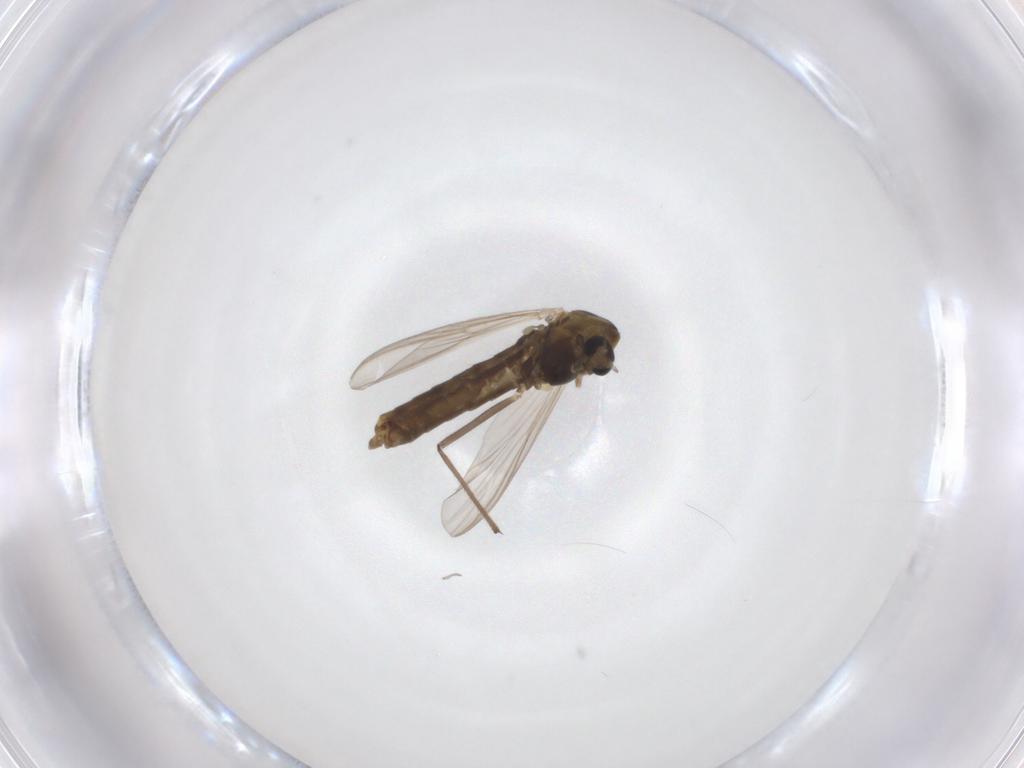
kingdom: Animalia
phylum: Arthropoda
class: Insecta
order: Diptera
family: Chironomidae
